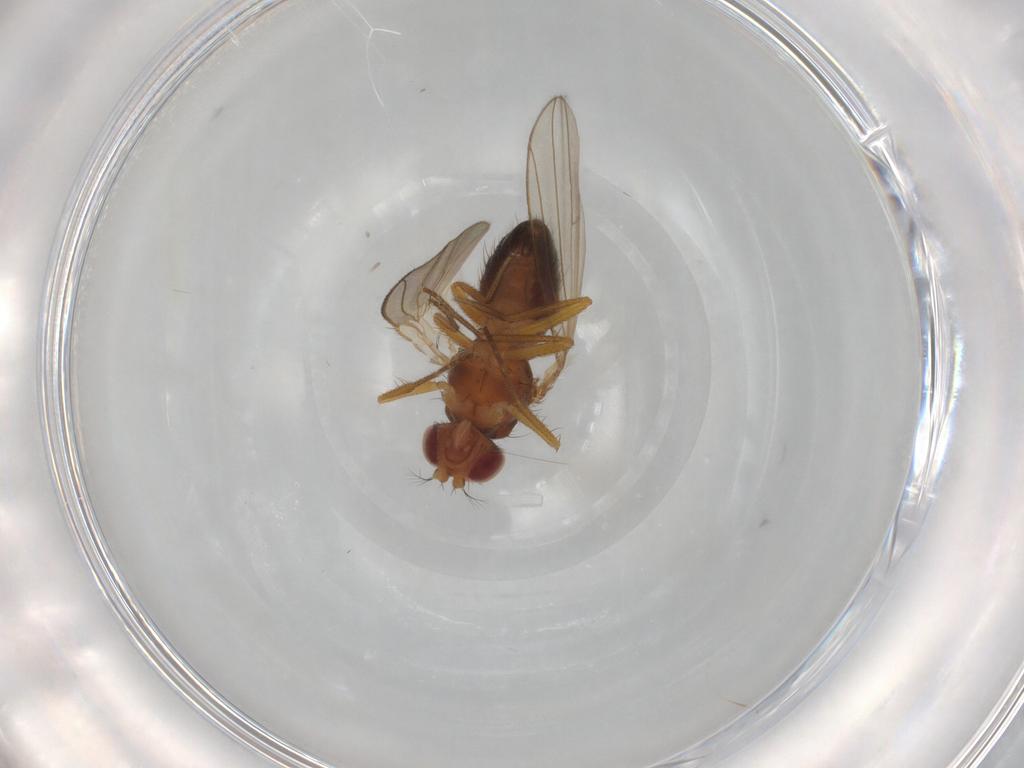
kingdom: Animalia
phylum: Arthropoda
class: Insecta
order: Diptera
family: Drosophilidae
